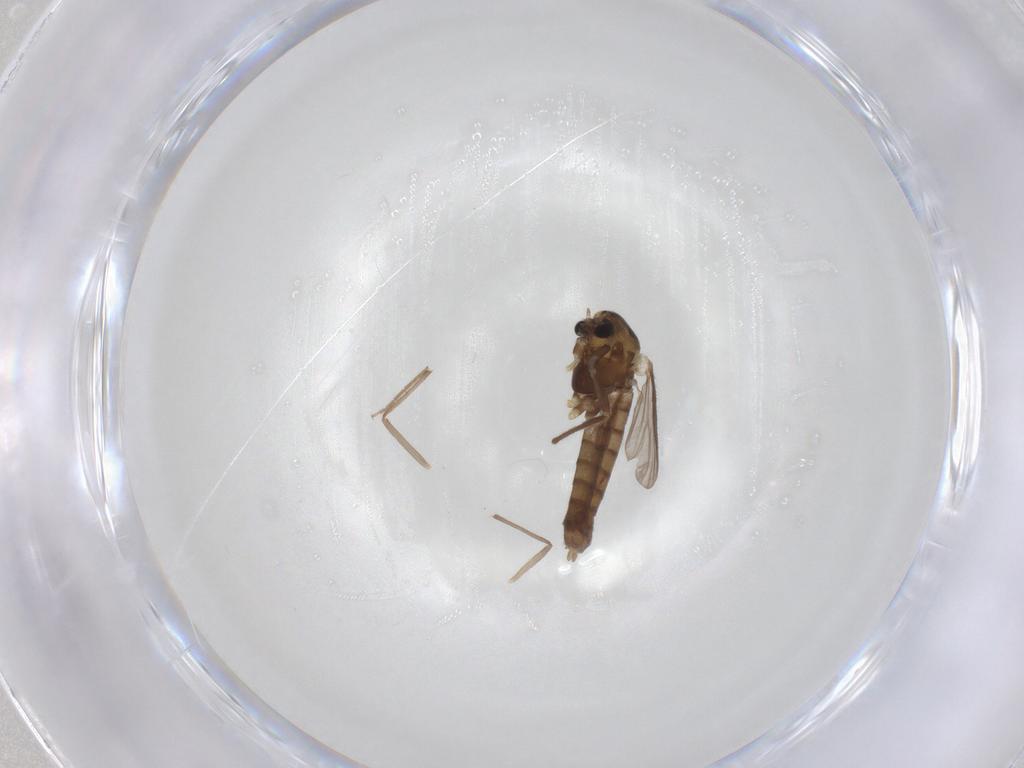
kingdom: Animalia
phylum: Arthropoda
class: Insecta
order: Diptera
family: Chironomidae
